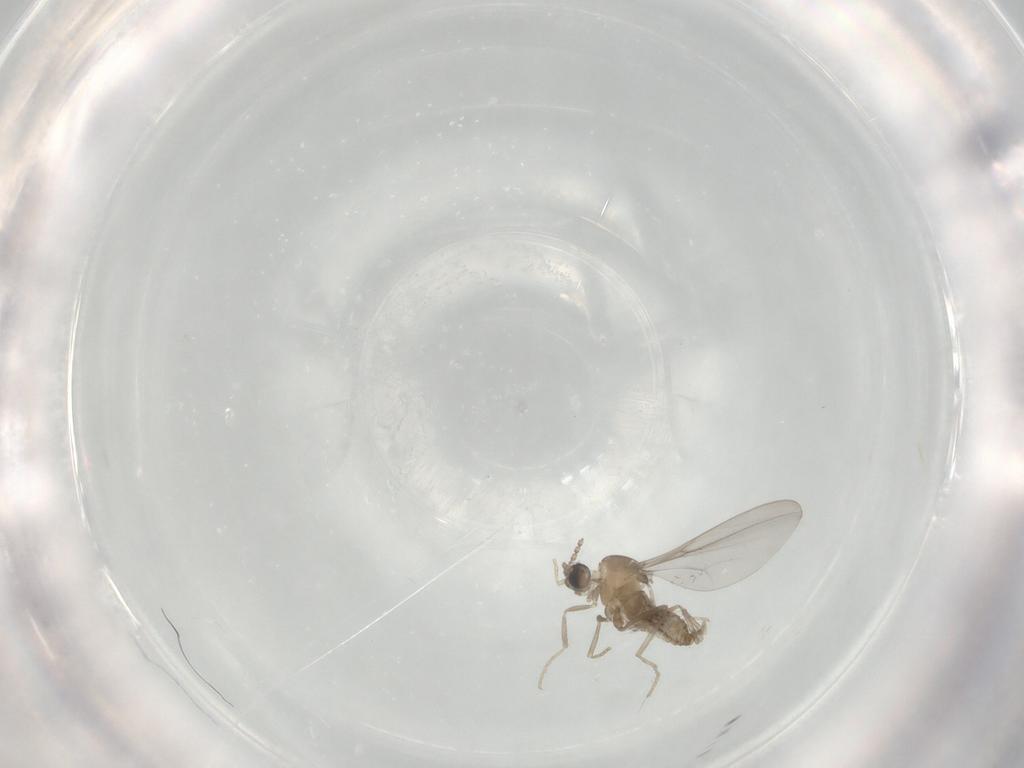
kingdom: Animalia
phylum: Arthropoda
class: Insecta
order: Diptera
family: Cecidomyiidae
